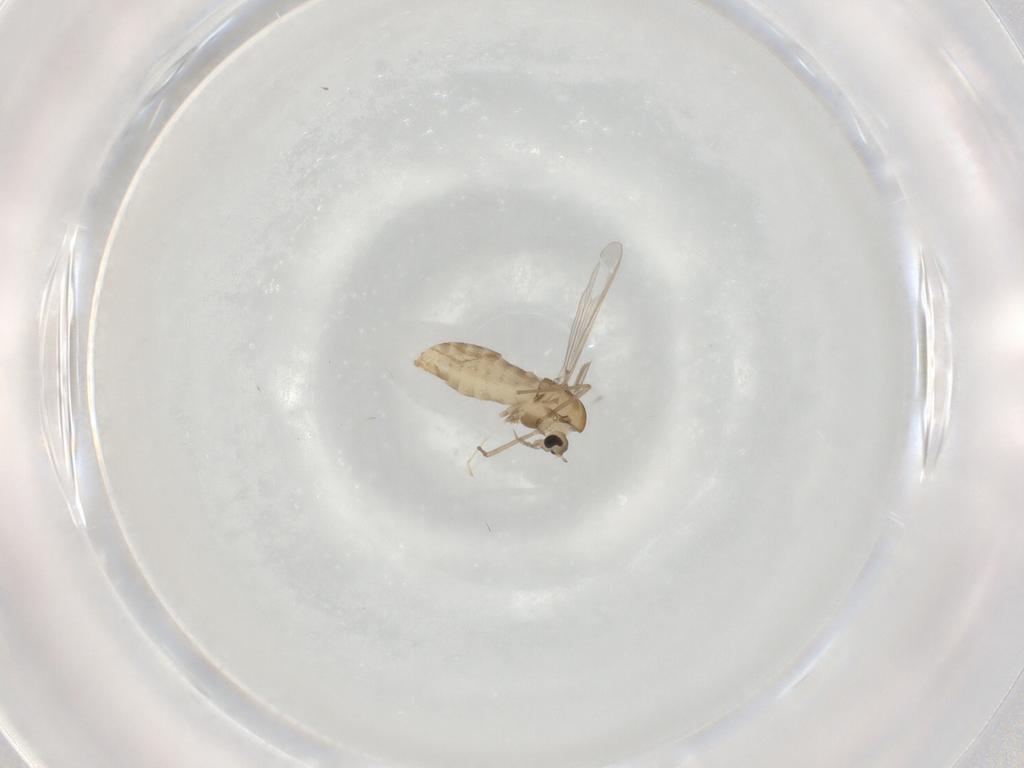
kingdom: Animalia
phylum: Arthropoda
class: Insecta
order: Diptera
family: Chironomidae
